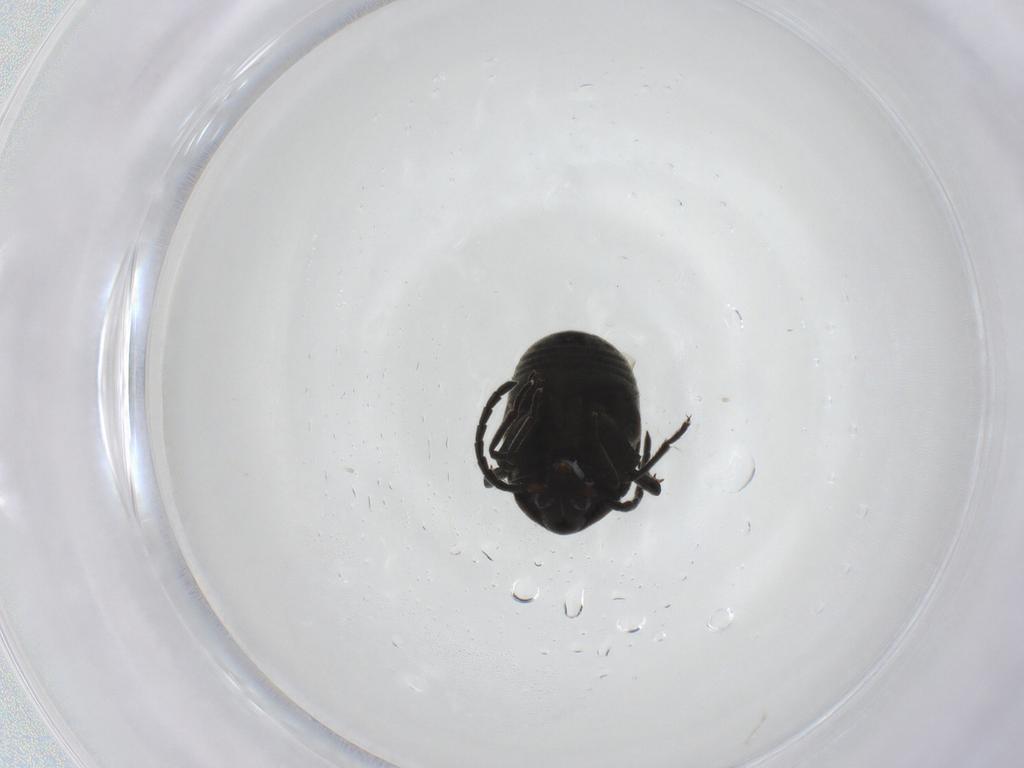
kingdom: Animalia
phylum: Arthropoda
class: Insecta
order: Coleoptera
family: Chrysomelidae
